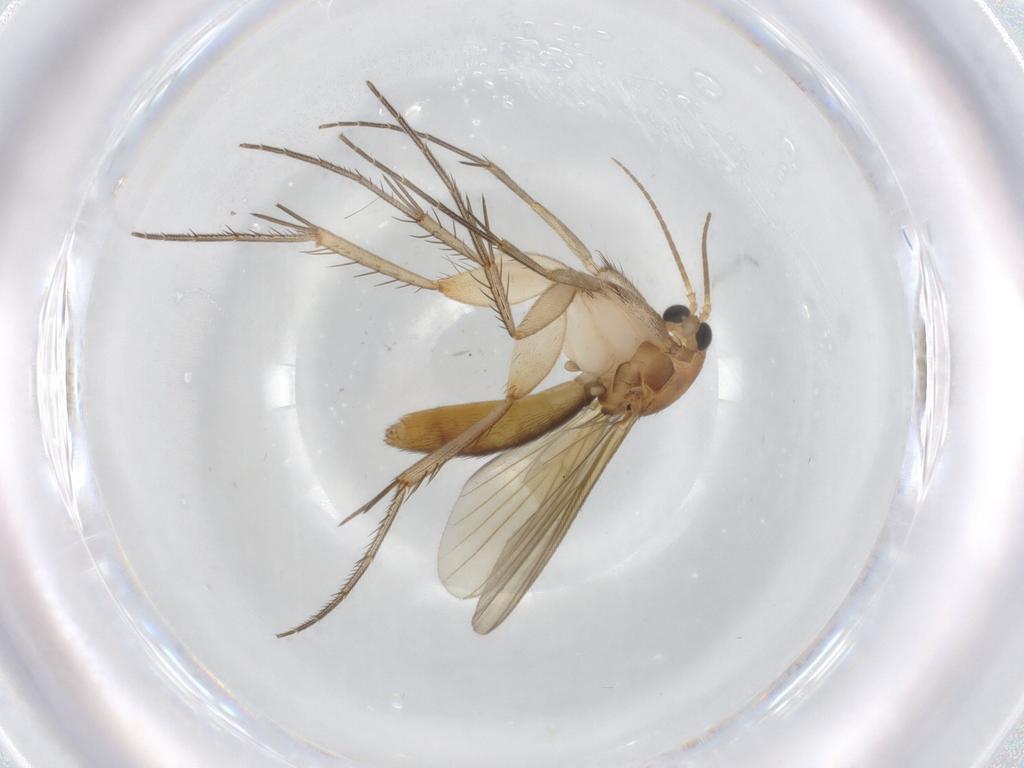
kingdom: Animalia
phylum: Arthropoda
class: Insecta
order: Diptera
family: Mycetophilidae
